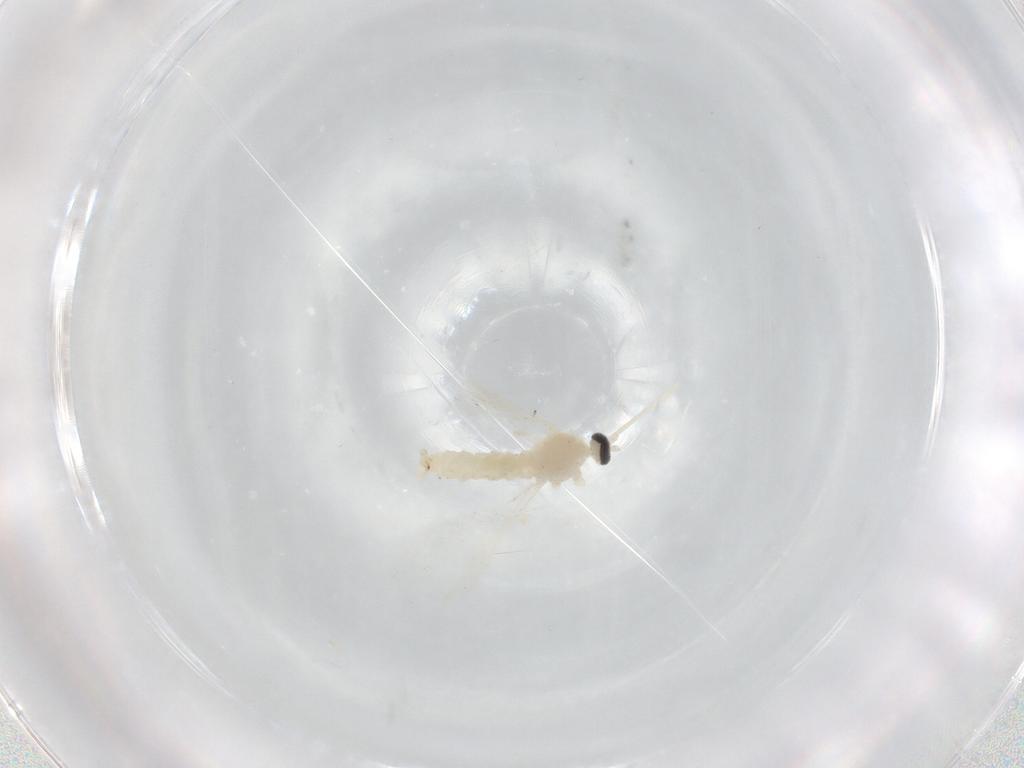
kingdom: Animalia
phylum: Arthropoda
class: Insecta
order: Diptera
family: Cecidomyiidae
